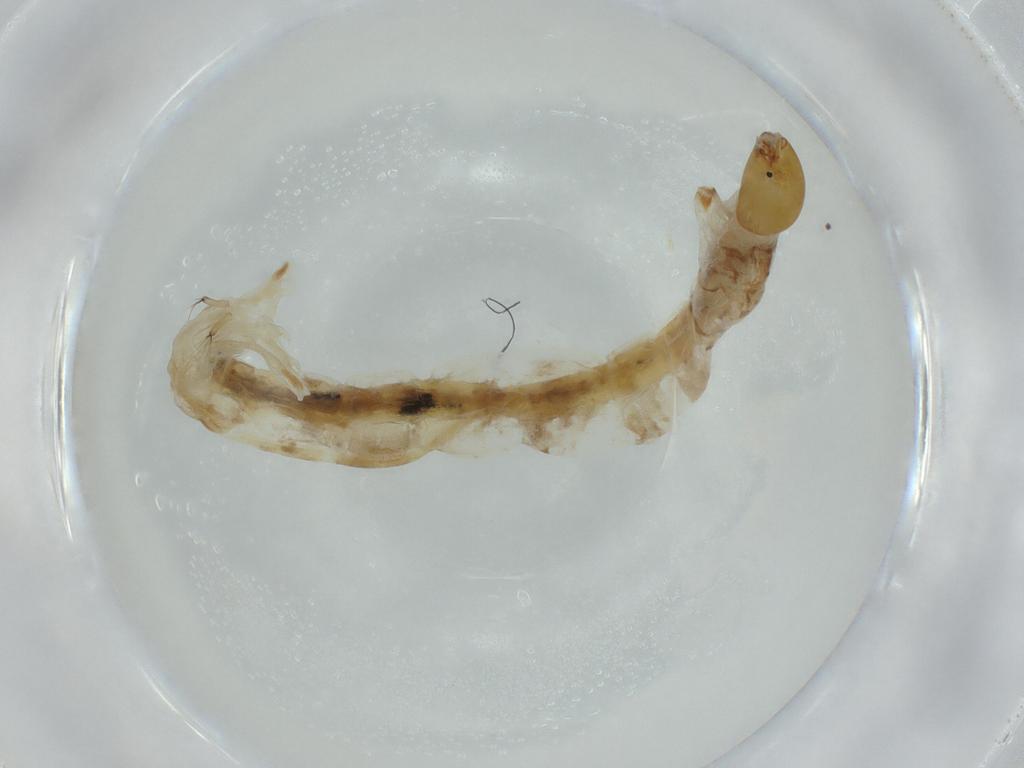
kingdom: Animalia
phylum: Arthropoda
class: Insecta
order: Diptera
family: Chironomidae
